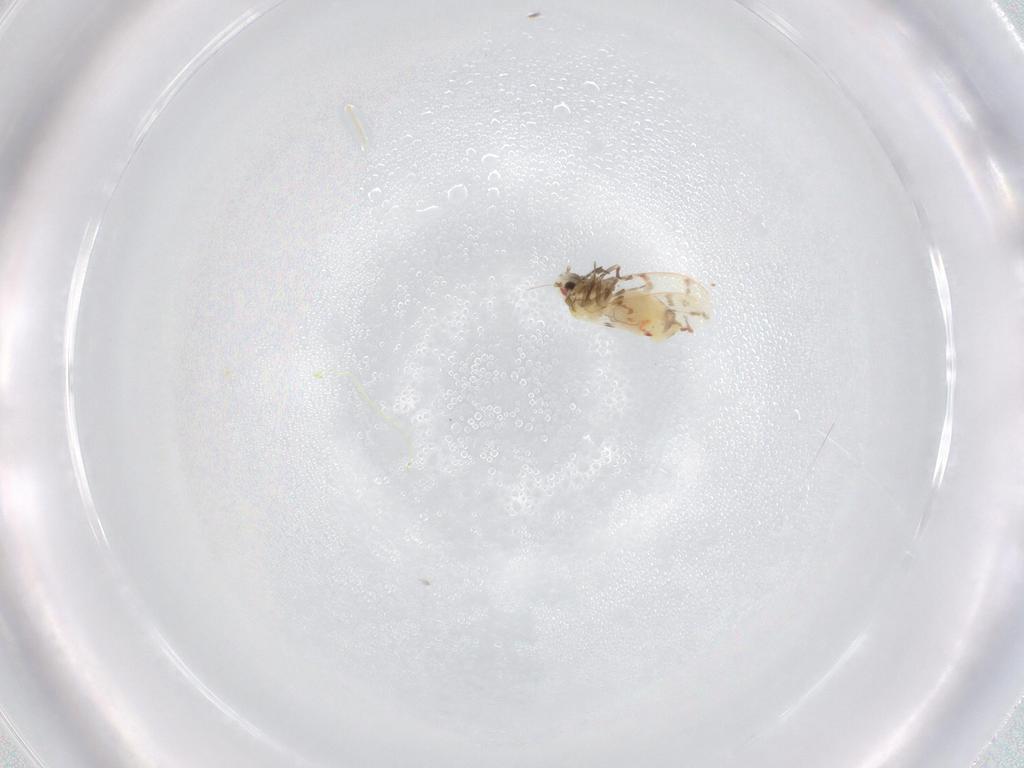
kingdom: Animalia
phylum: Arthropoda
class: Insecta
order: Hemiptera
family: Aleyrodidae
